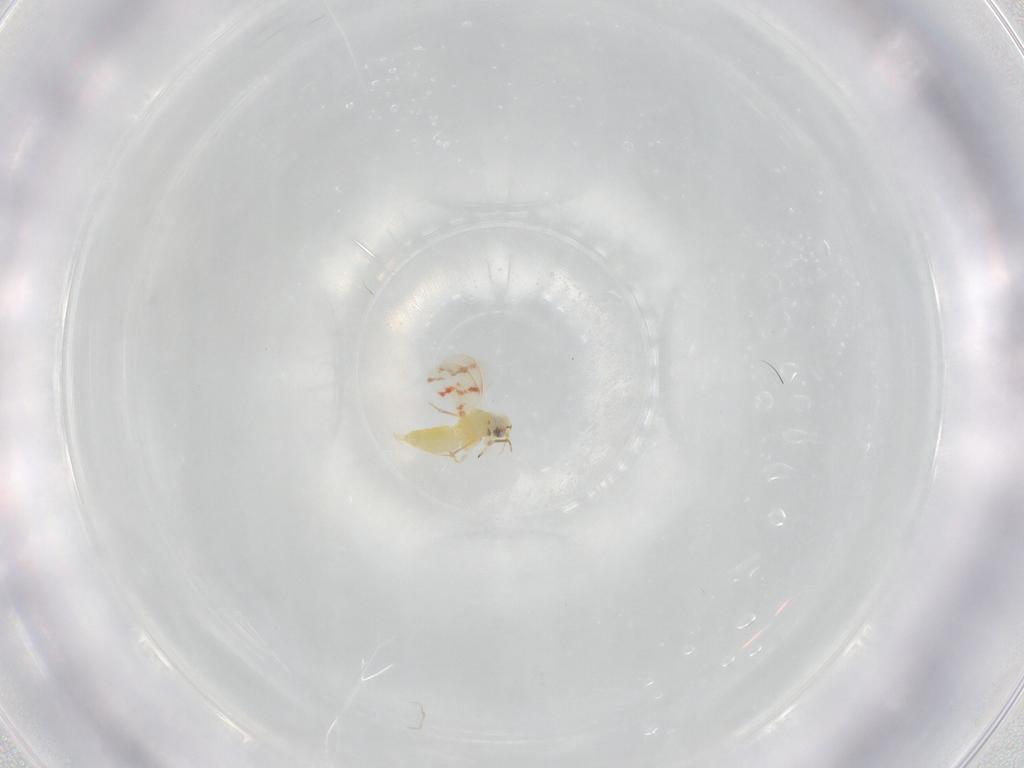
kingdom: Animalia
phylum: Arthropoda
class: Insecta
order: Hemiptera
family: Aleyrodidae
